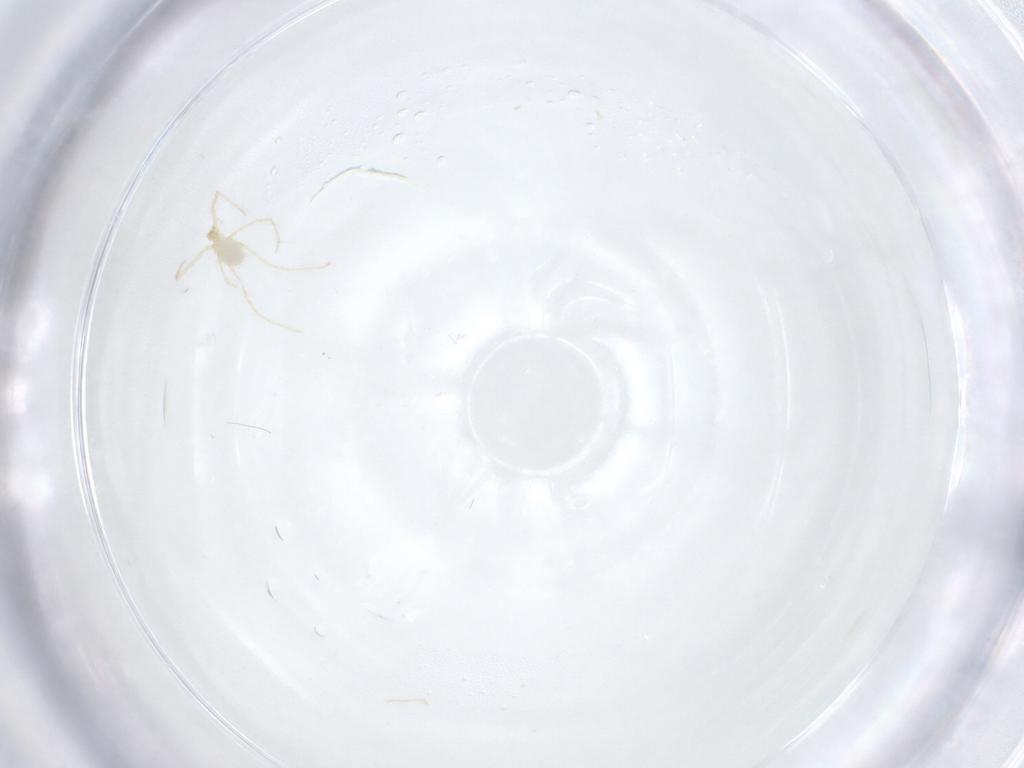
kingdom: Animalia
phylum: Arthropoda
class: Arachnida
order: Trombidiformes
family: Erythraeidae
